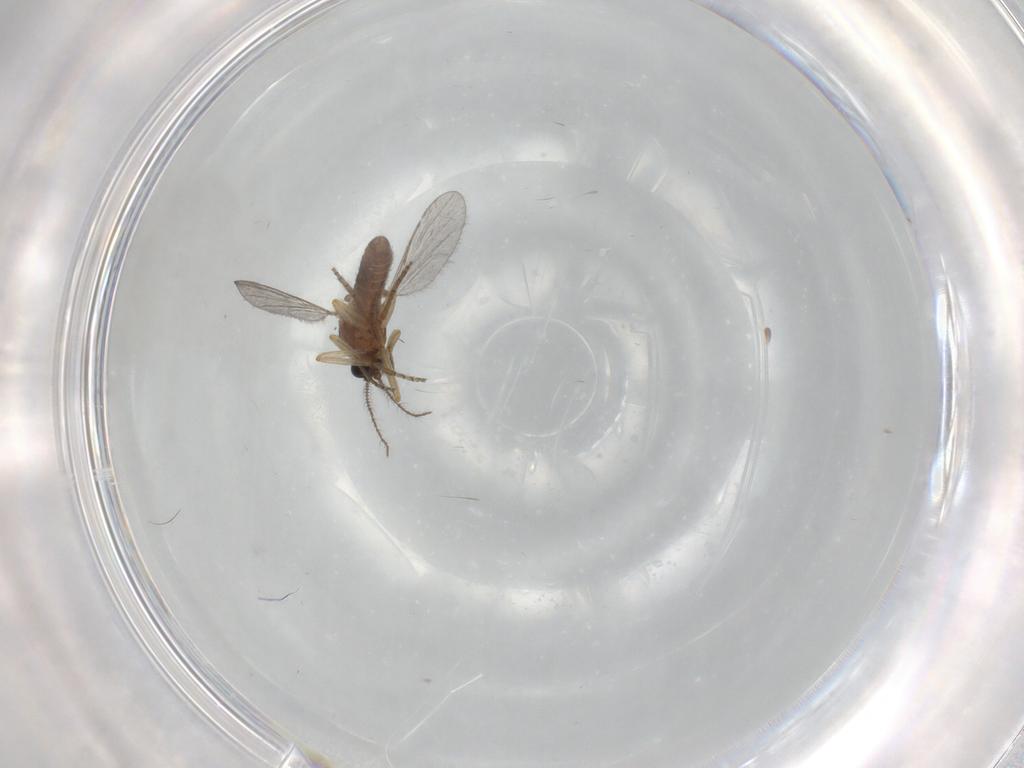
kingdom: Animalia
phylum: Arthropoda
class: Insecta
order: Diptera
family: Ceratopogonidae
